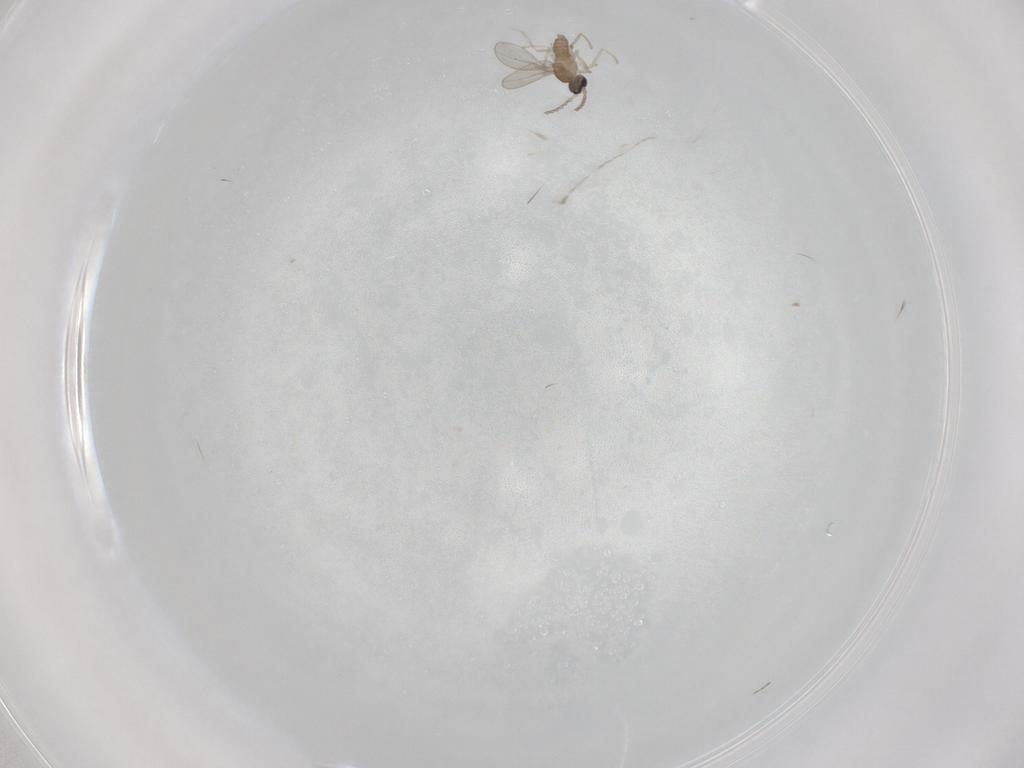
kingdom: Animalia
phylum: Arthropoda
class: Insecta
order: Diptera
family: Cecidomyiidae
